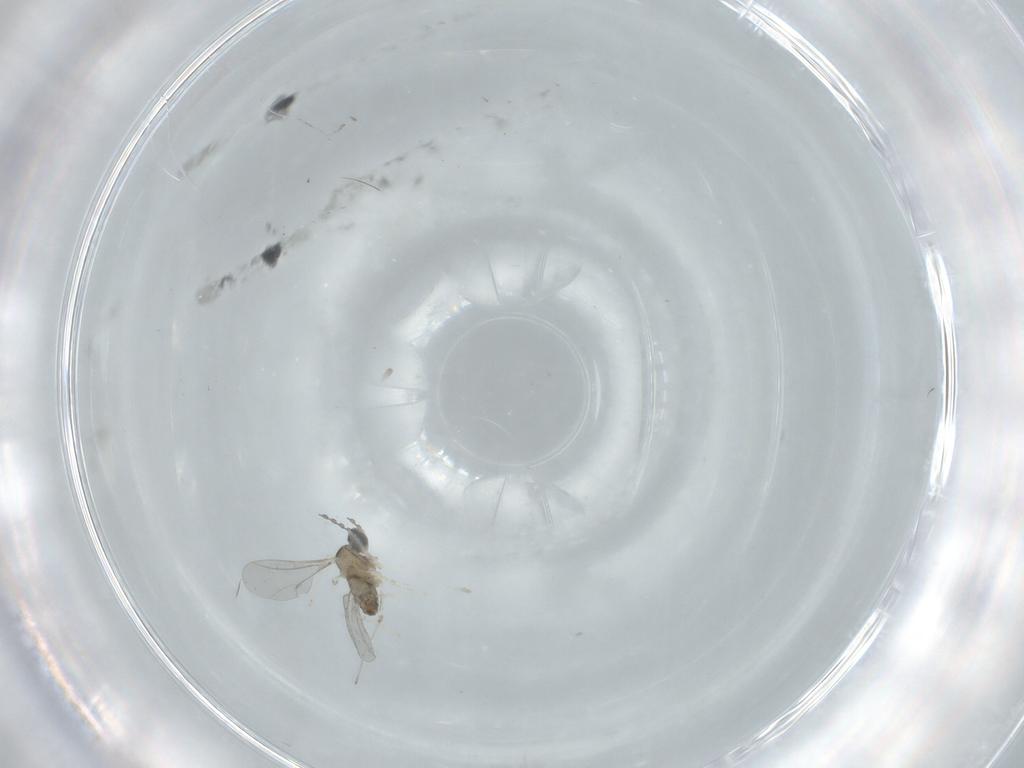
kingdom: Animalia
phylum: Arthropoda
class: Insecta
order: Diptera
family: Cecidomyiidae
